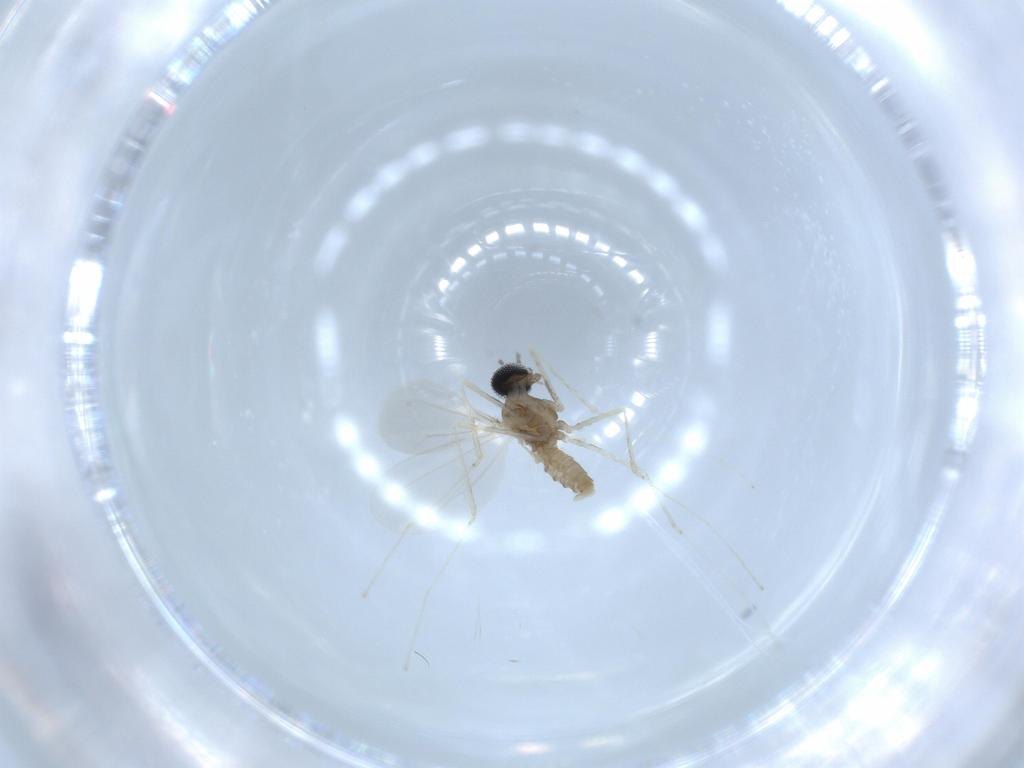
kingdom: Animalia
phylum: Arthropoda
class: Insecta
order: Diptera
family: Cecidomyiidae
